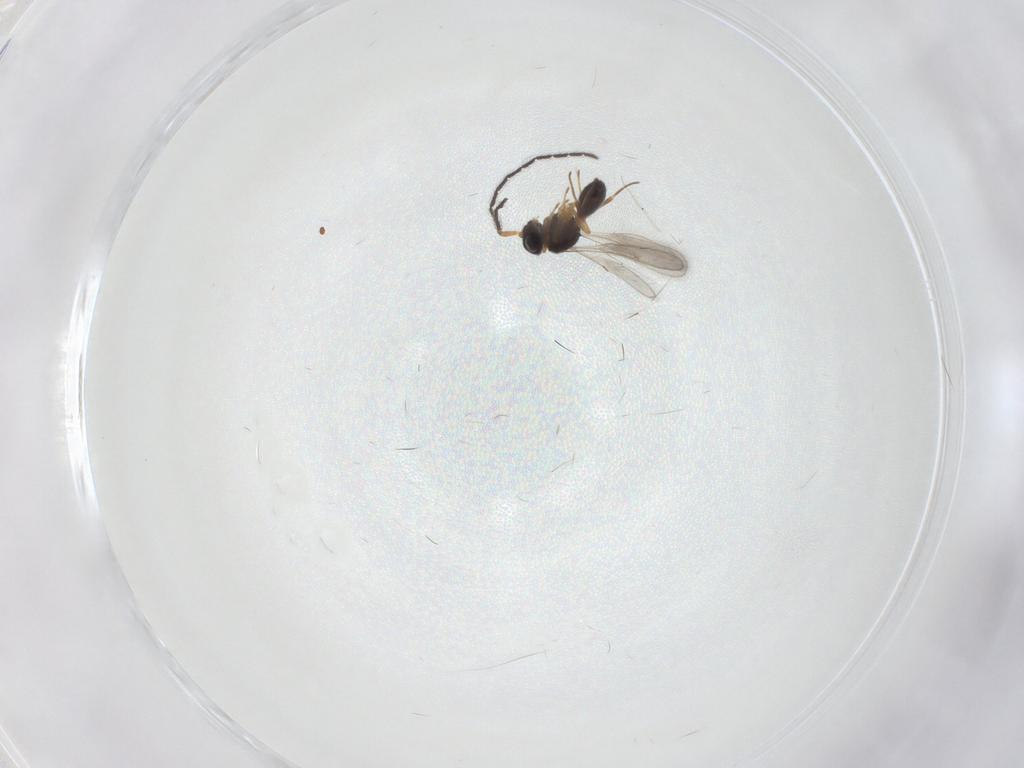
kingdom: Animalia
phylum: Arthropoda
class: Insecta
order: Hymenoptera
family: Scelionidae
